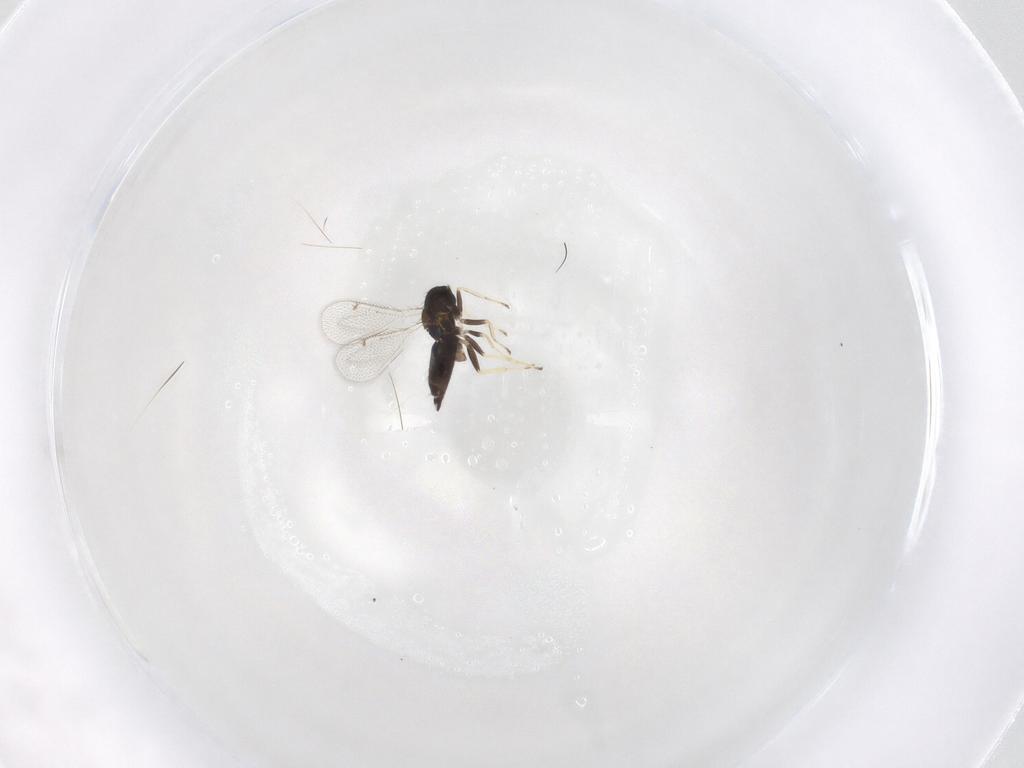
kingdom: Animalia
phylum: Arthropoda
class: Insecta
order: Hymenoptera
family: Eulophidae
